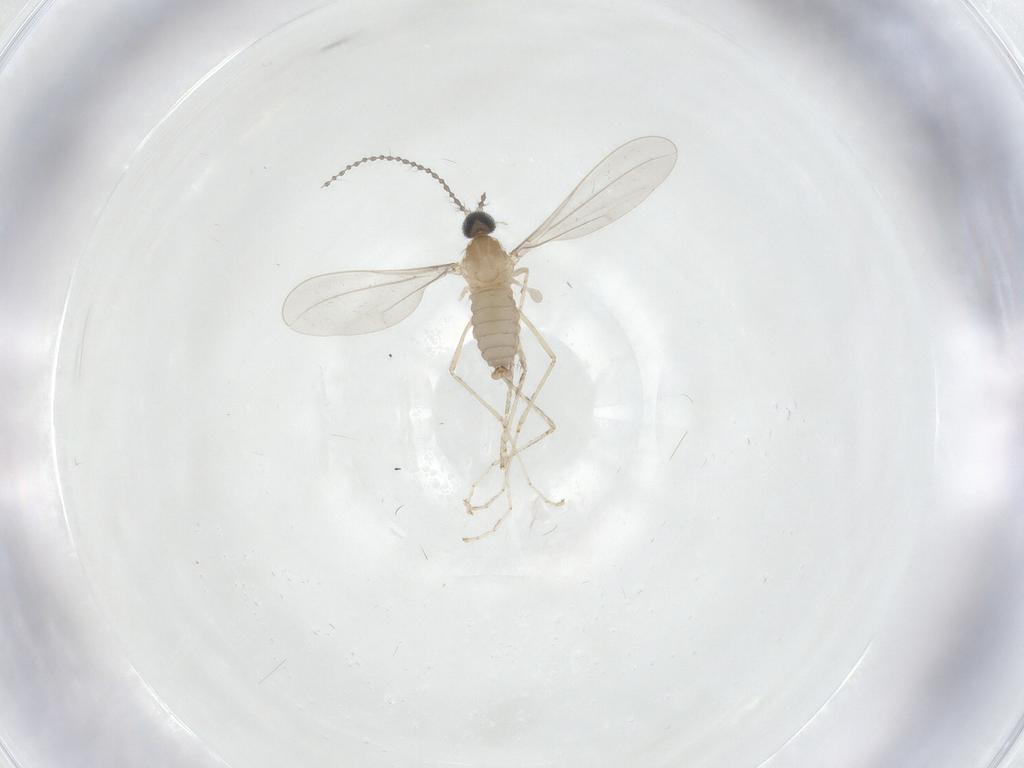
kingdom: Animalia
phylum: Arthropoda
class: Insecta
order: Diptera
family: Chironomidae
